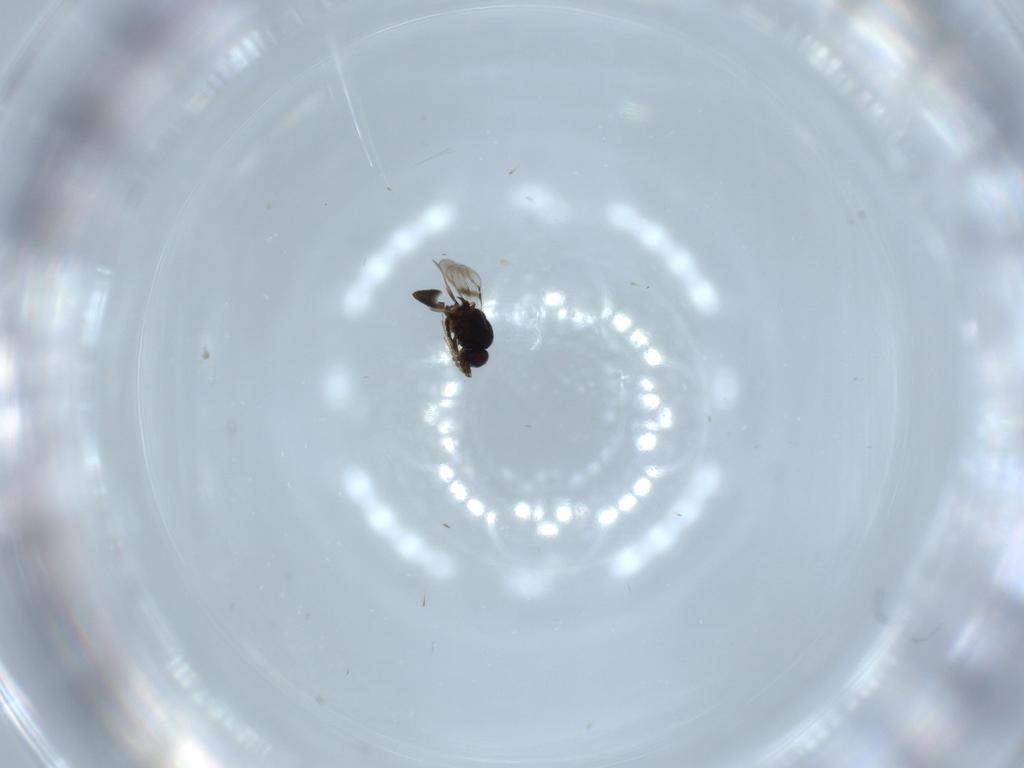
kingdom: Animalia
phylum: Arthropoda
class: Insecta
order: Hymenoptera
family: Ceraphronidae
